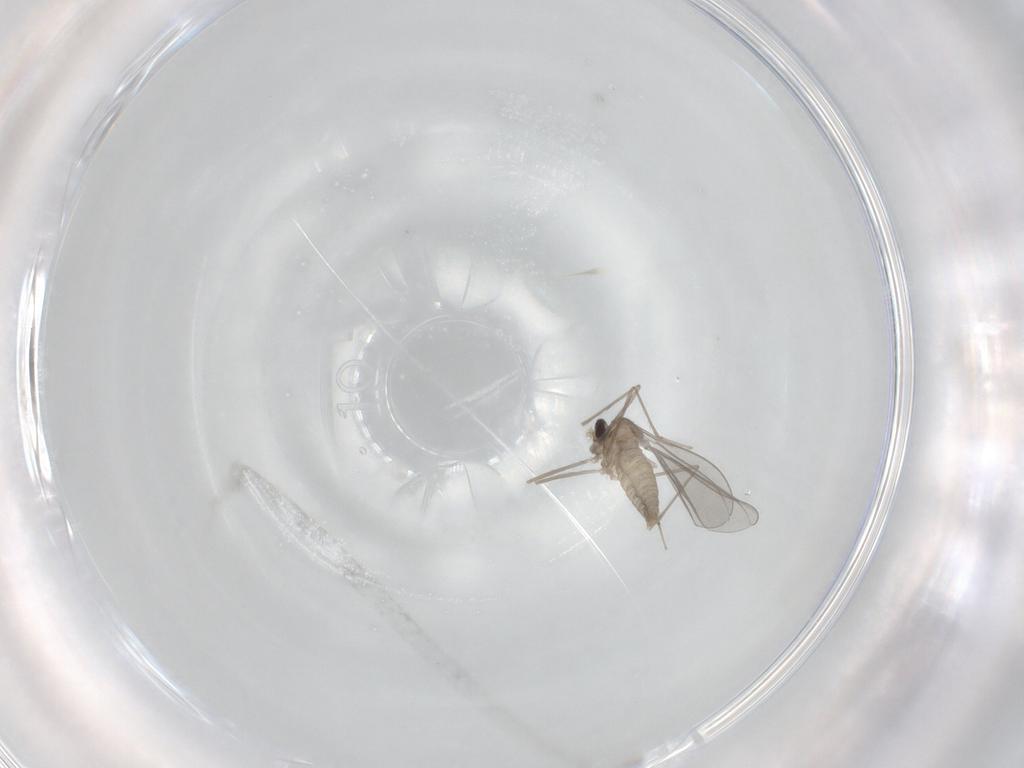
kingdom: Animalia
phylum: Arthropoda
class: Insecta
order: Diptera
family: Cecidomyiidae
